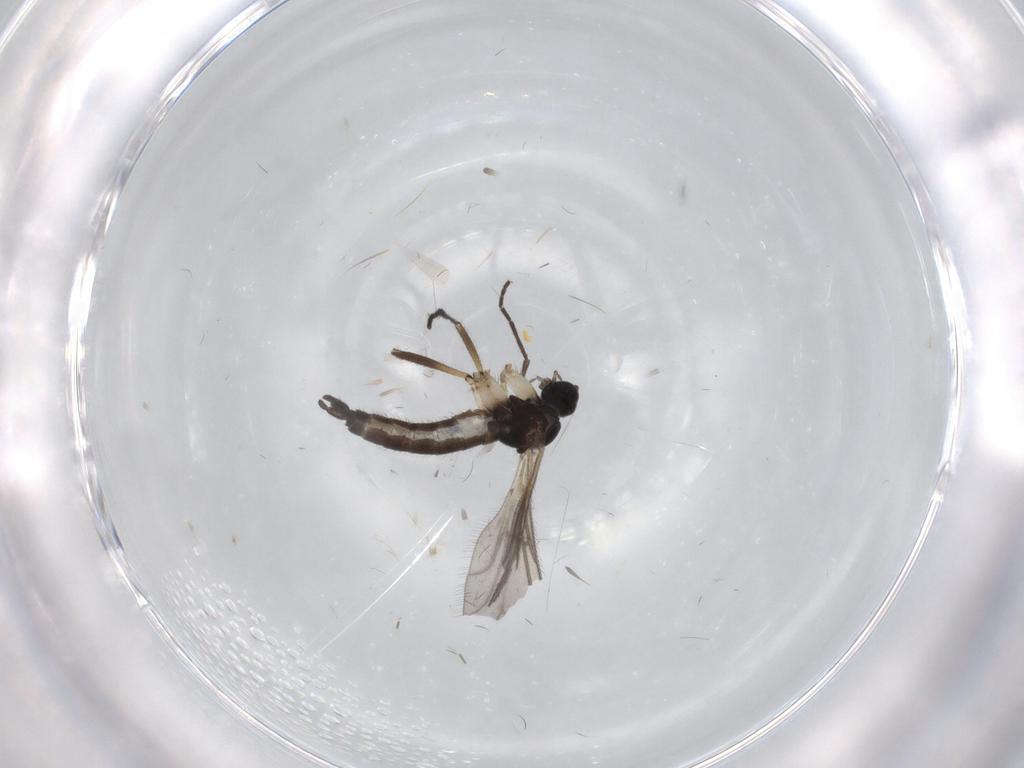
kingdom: Animalia
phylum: Arthropoda
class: Insecta
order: Diptera
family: Sciaridae
